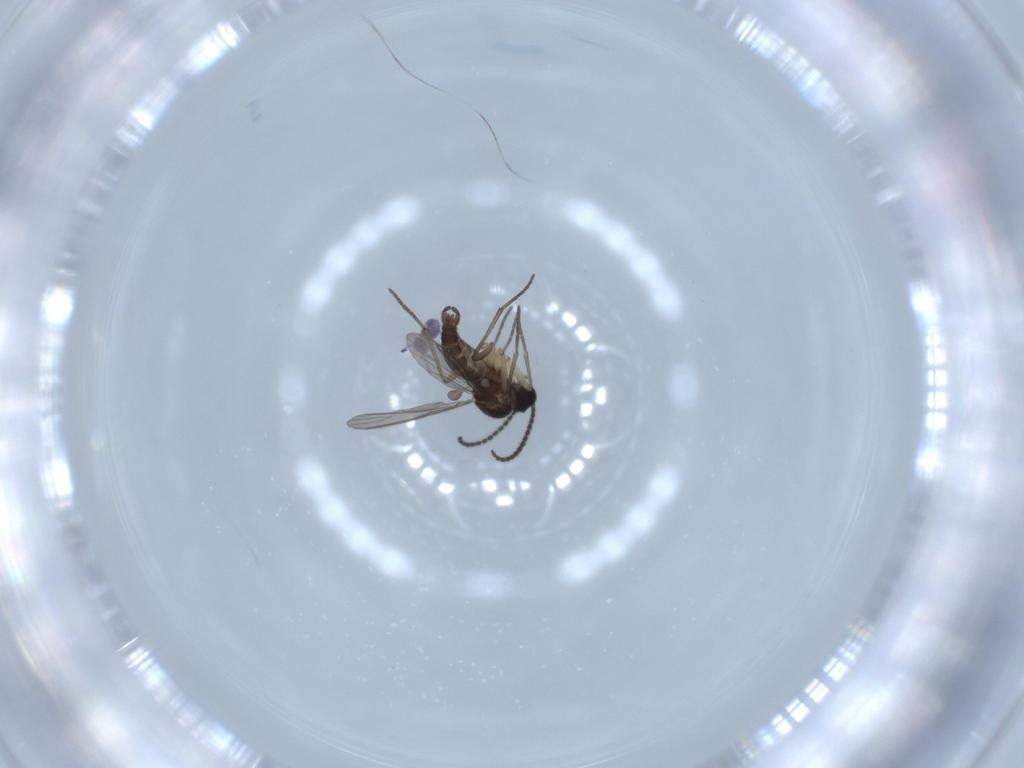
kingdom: Animalia
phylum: Arthropoda
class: Insecta
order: Diptera
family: Sciaridae
